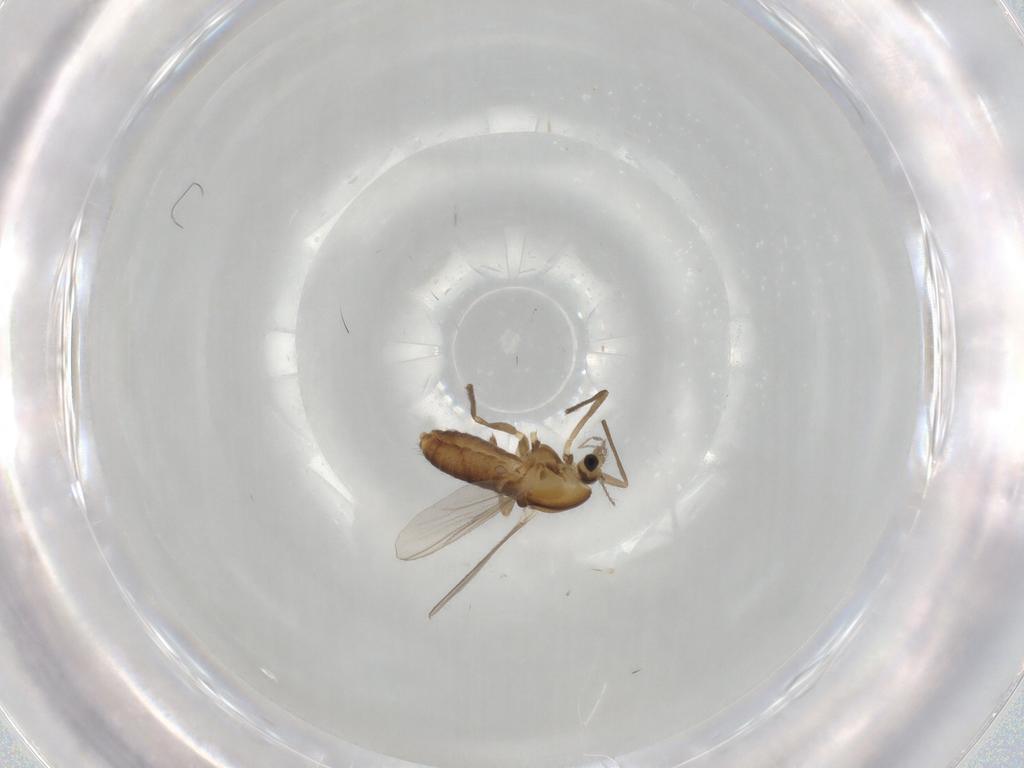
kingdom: Animalia
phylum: Arthropoda
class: Insecta
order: Diptera
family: Chironomidae
